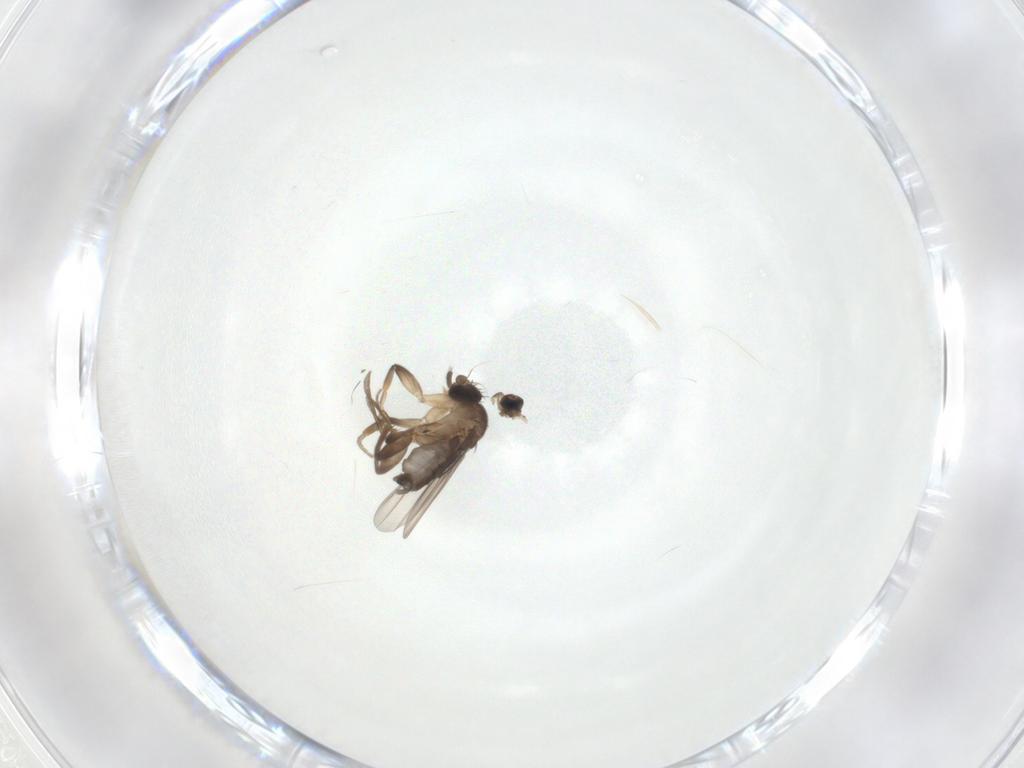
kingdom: Animalia
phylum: Arthropoda
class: Insecta
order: Diptera
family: Phoridae
